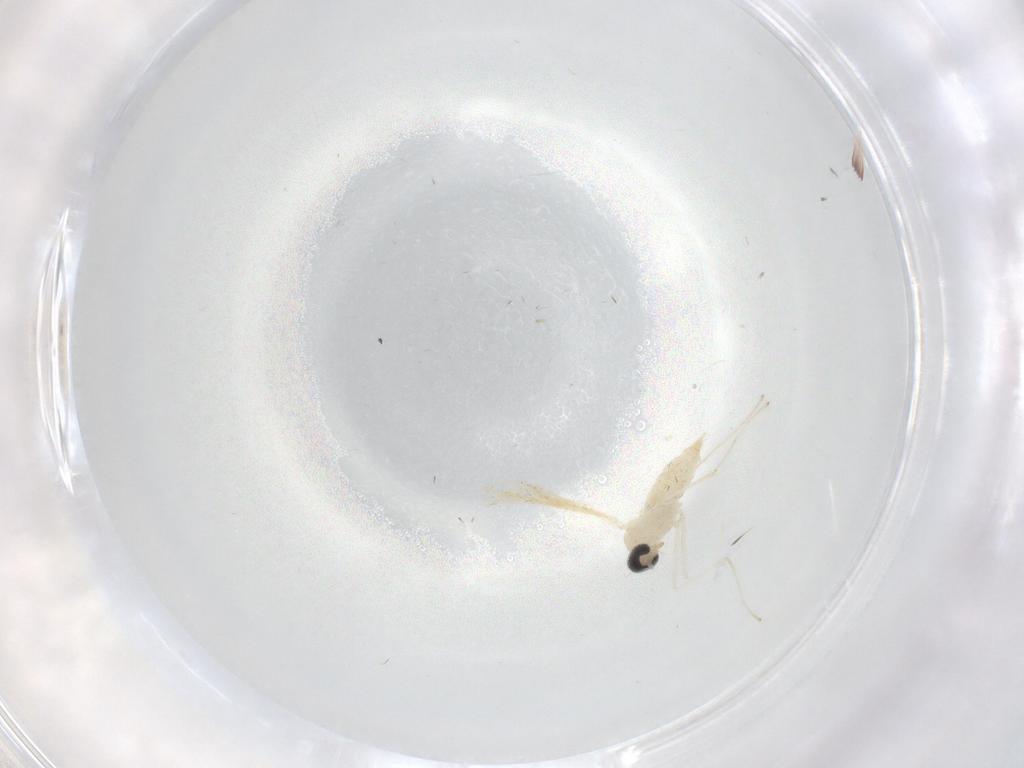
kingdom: Animalia
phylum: Arthropoda
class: Insecta
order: Diptera
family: Cecidomyiidae
